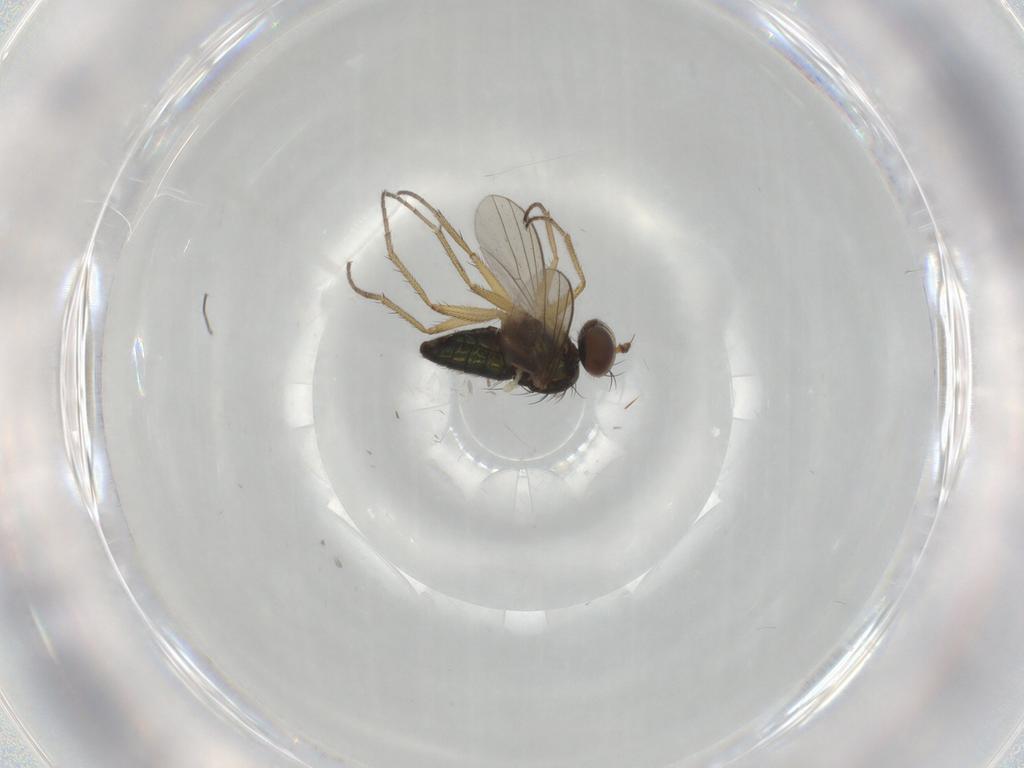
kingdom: Animalia
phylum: Arthropoda
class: Insecta
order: Diptera
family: Dolichopodidae
